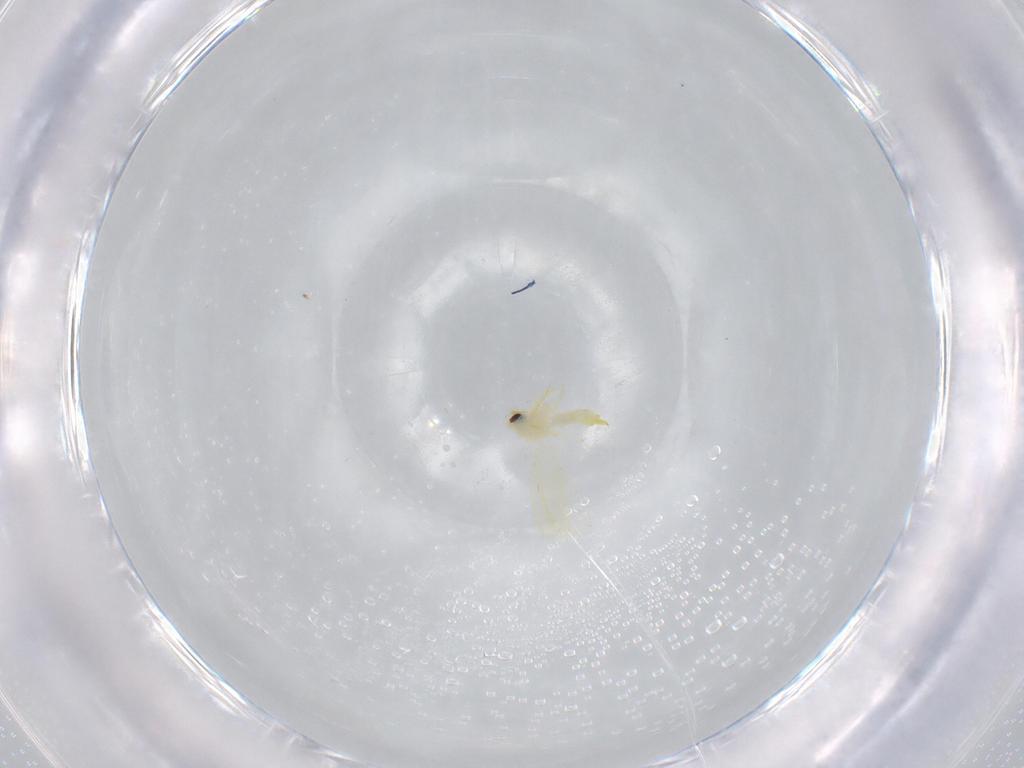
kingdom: Animalia
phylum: Arthropoda
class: Insecta
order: Hemiptera
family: Aleyrodidae
